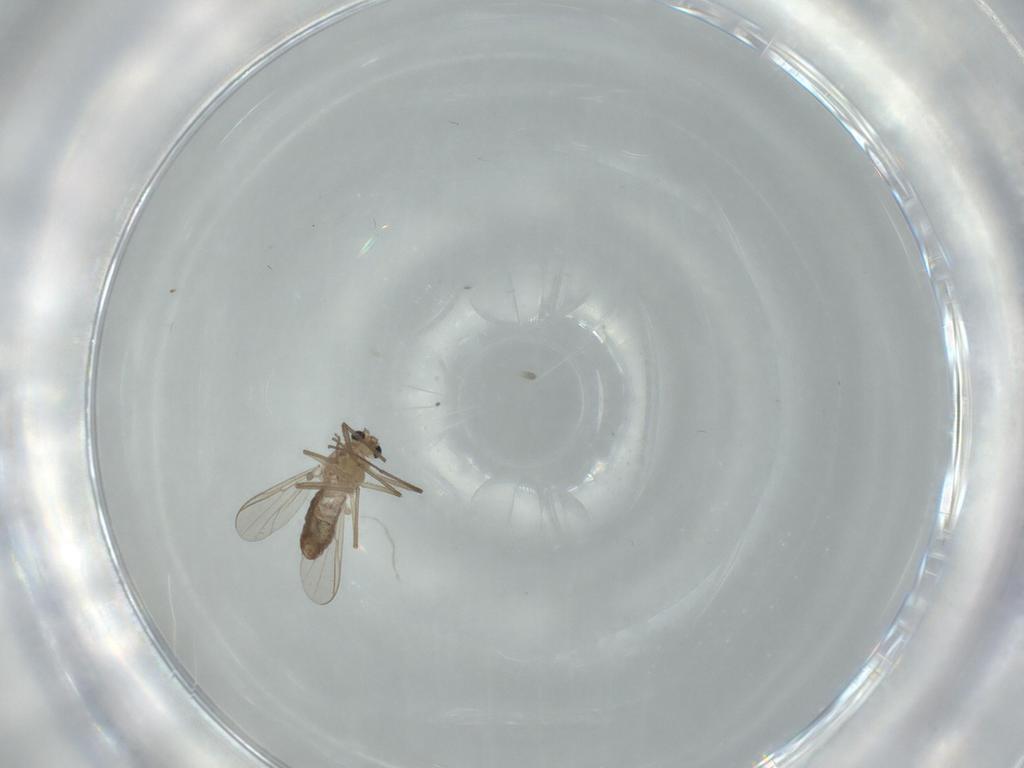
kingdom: Animalia
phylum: Arthropoda
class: Insecta
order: Diptera
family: Chironomidae
